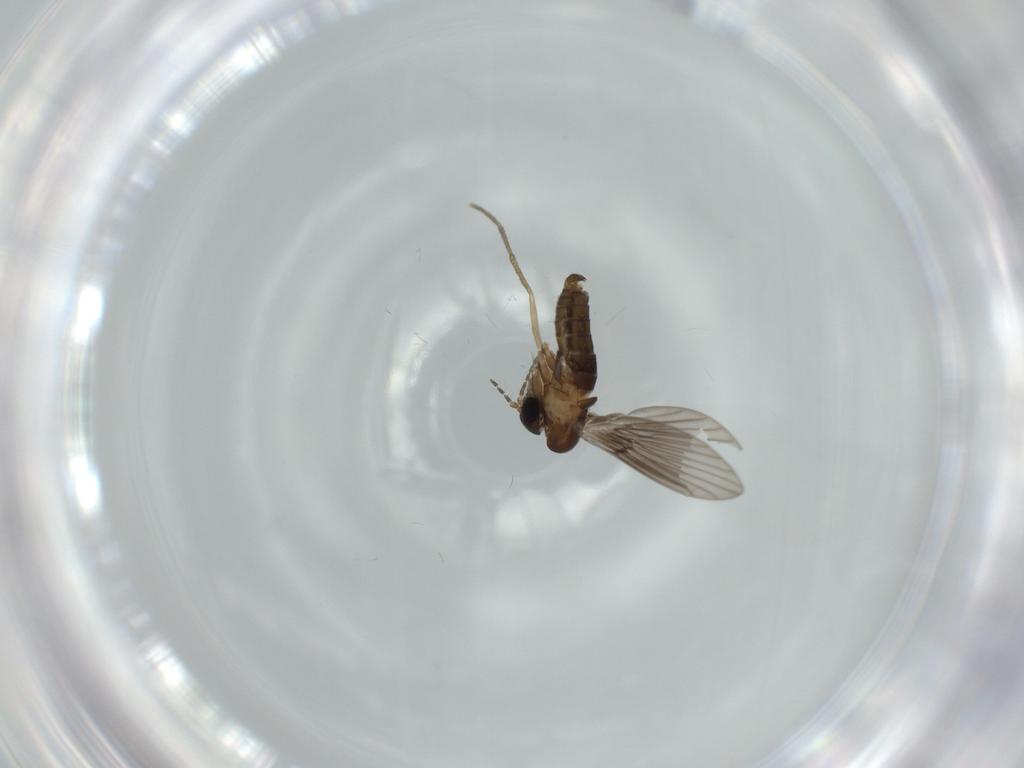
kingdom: Animalia
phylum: Arthropoda
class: Insecta
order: Diptera
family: Psychodidae
